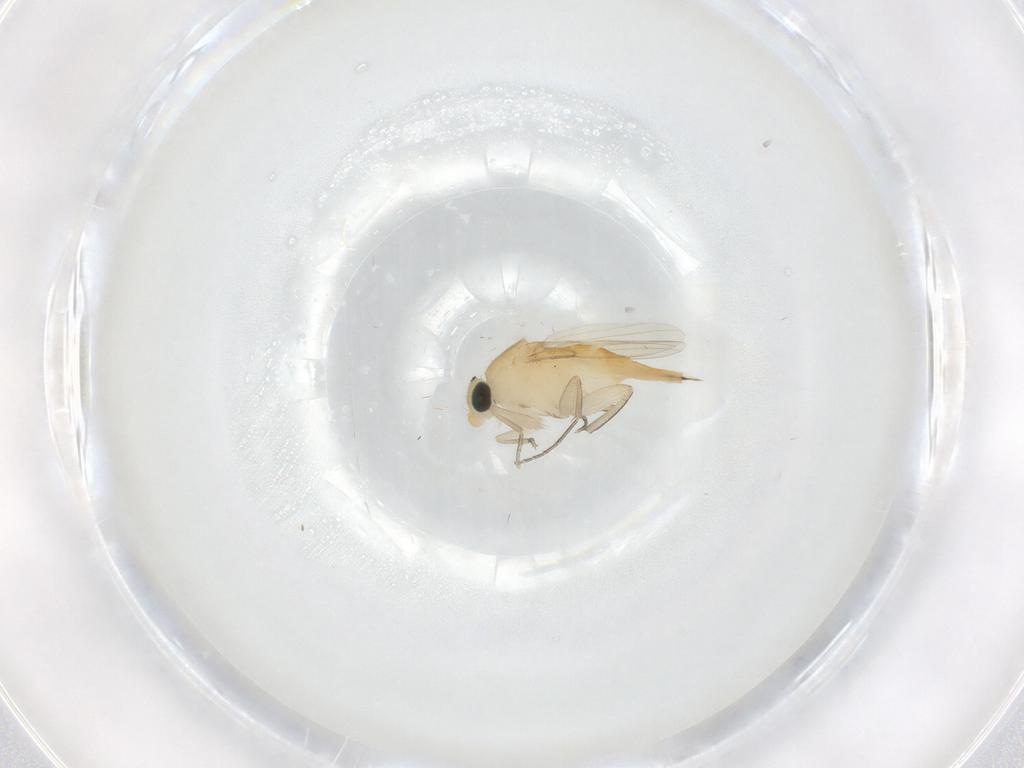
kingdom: Animalia
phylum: Arthropoda
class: Insecta
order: Diptera
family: Phoridae
